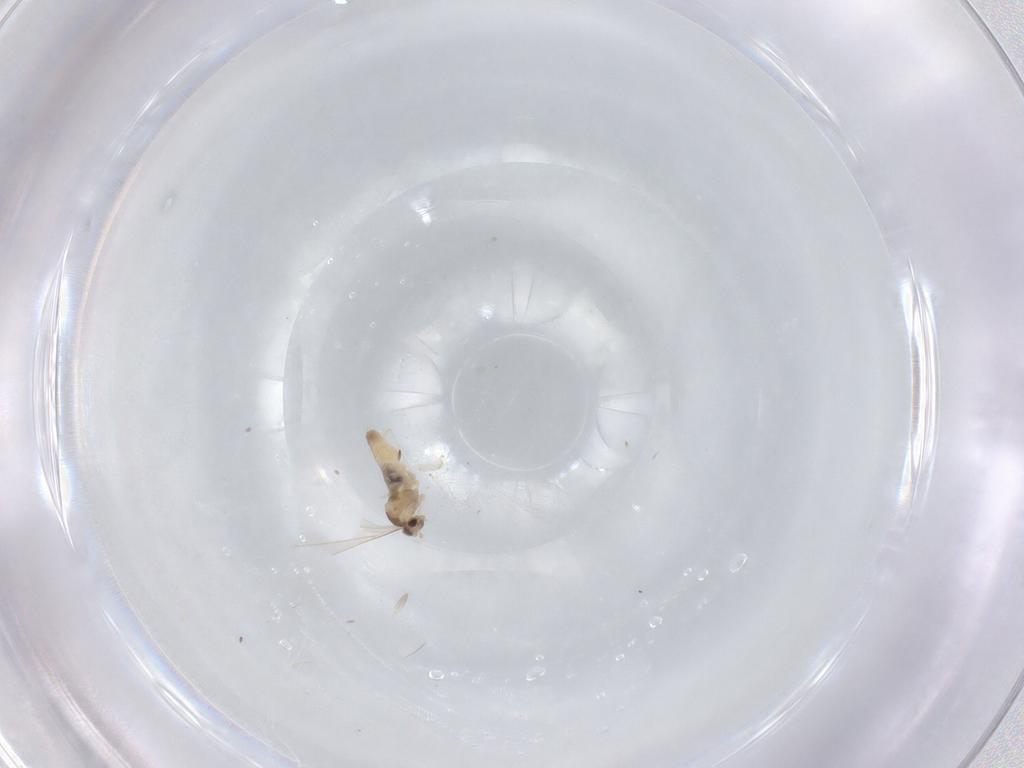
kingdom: Animalia
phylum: Arthropoda
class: Insecta
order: Diptera
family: Cecidomyiidae
